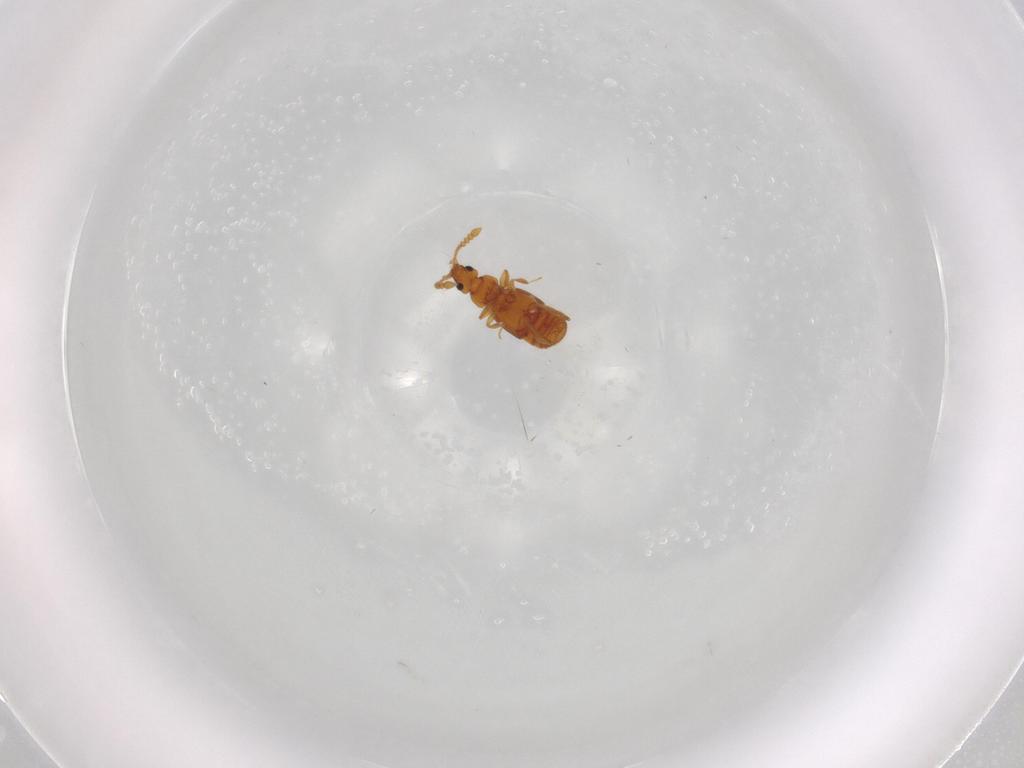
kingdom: Animalia
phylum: Arthropoda
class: Insecta
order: Coleoptera
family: Staphylinidae
